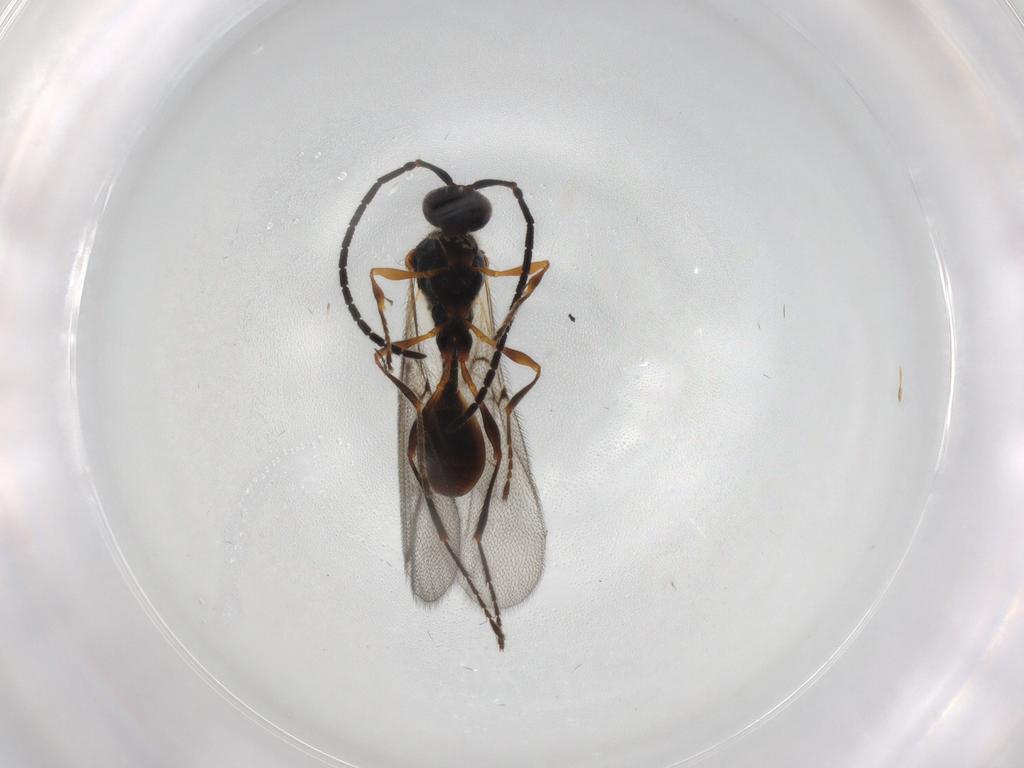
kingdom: Animalia
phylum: Arthropoda
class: Insecta
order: Hymenoptera
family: Diapriidae
